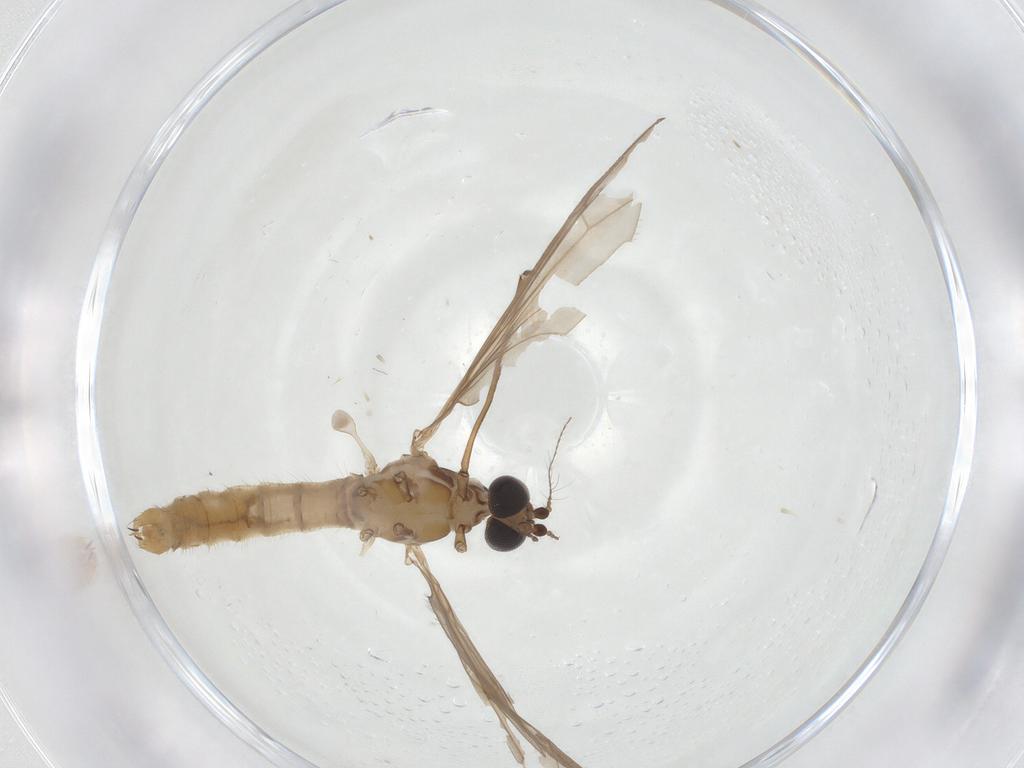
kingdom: Animalia
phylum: Arthropoda
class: Insecta
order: Diptera
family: Limoniidae
